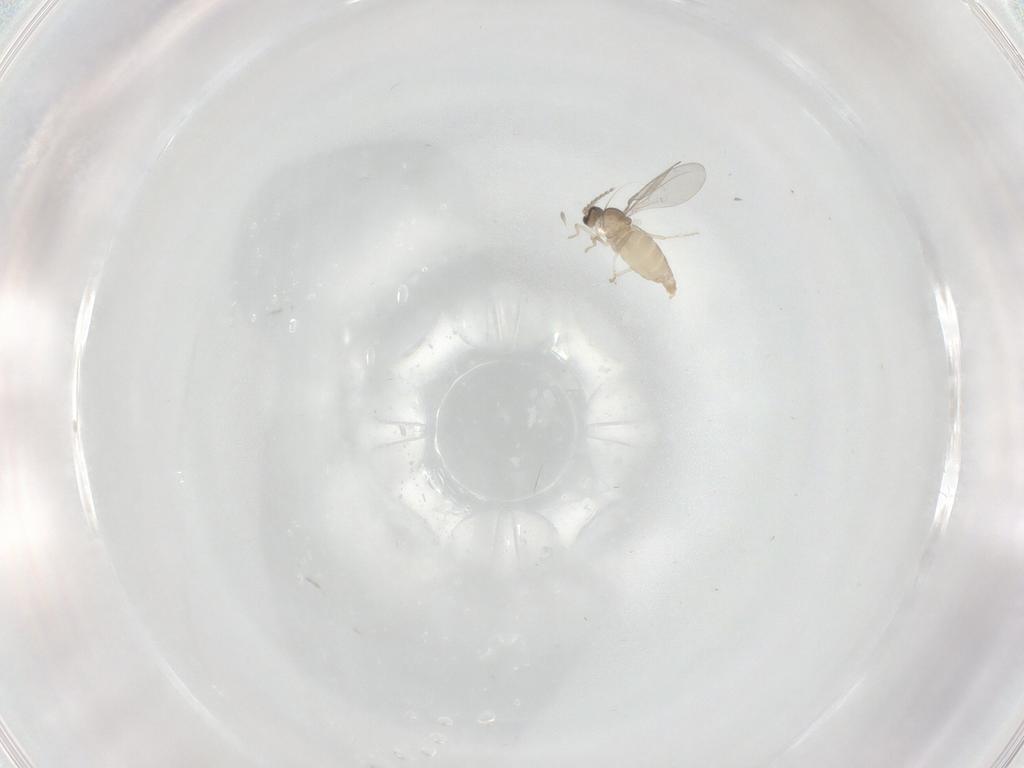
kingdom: Animalia
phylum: Arthropoda
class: Insecta
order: Diptera
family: Cecidomyiidae
